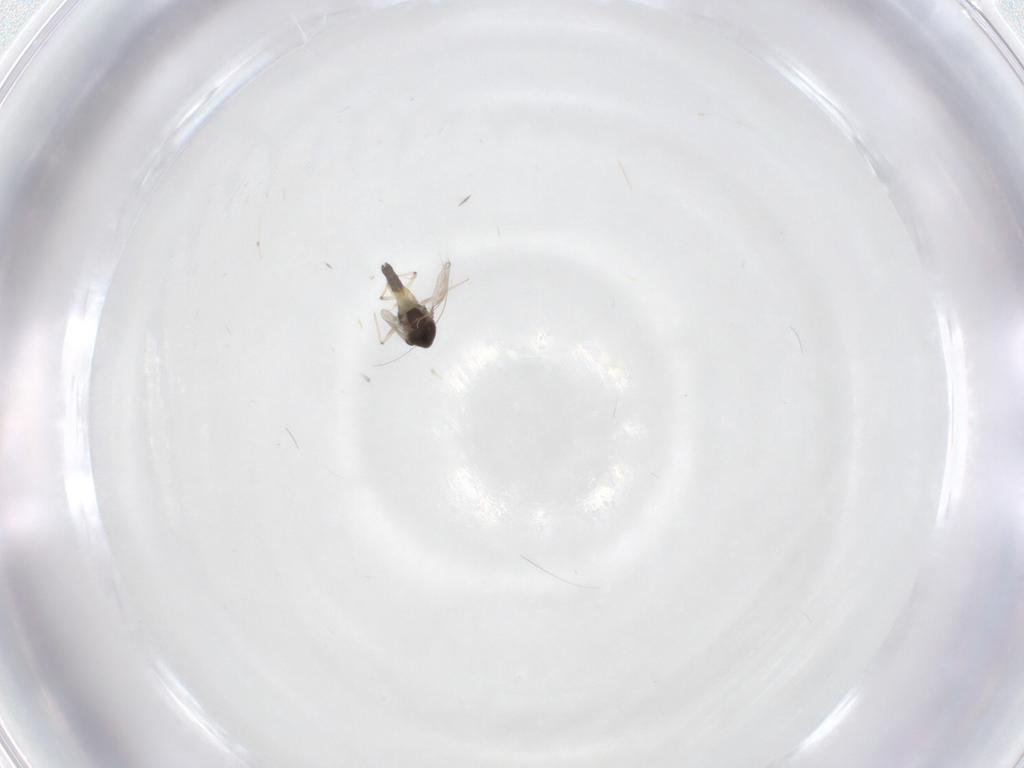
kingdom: Animalia
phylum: Arthropoda
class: Insecta
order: Diptera
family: Chironomidae
